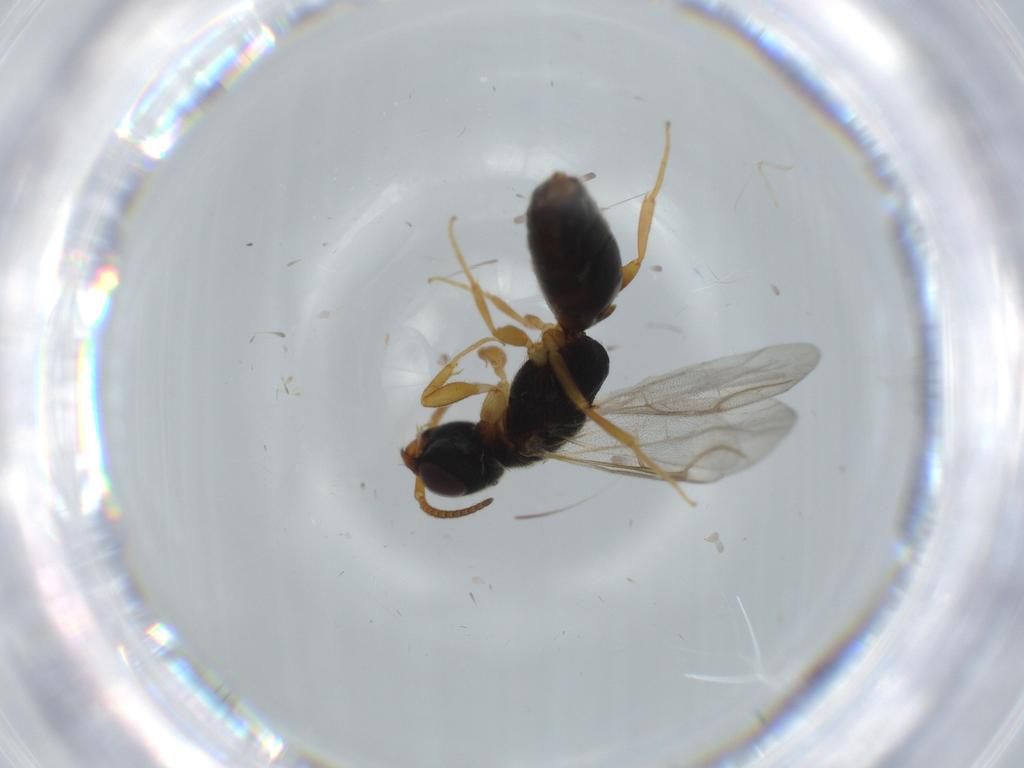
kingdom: Animalia
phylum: Arthropoda
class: Insecta
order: Hymenoptera
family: Bethylidae
